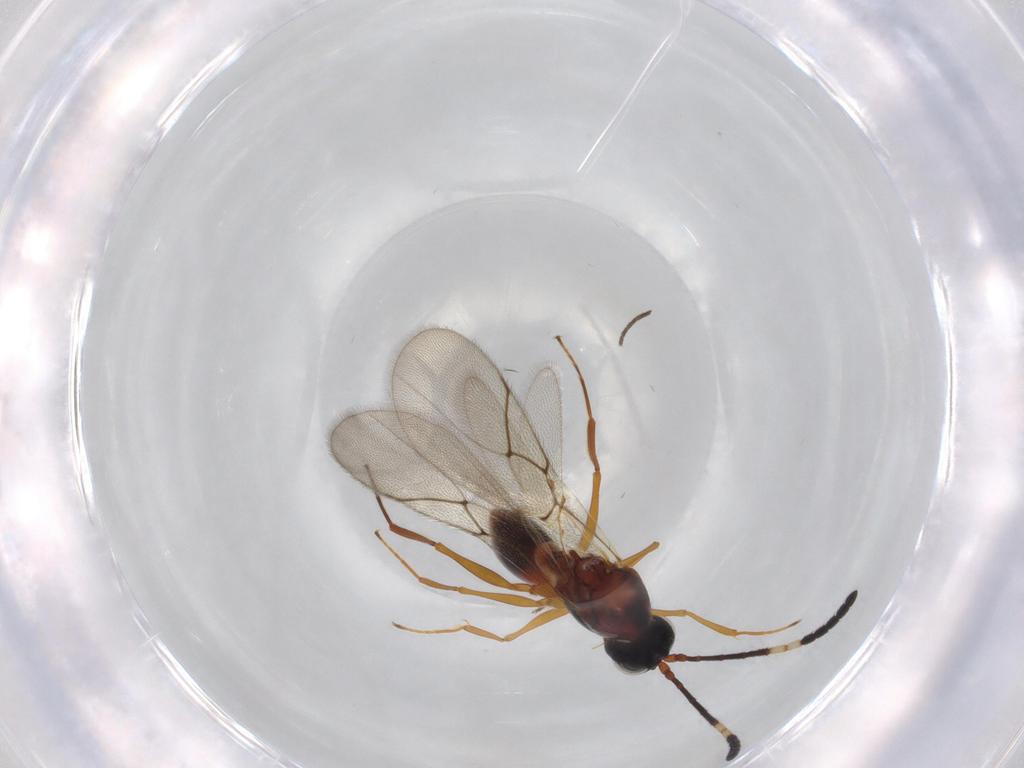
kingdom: Animalia
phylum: Arthropoda
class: Insecta
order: Hymenoptera
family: Figitidae
